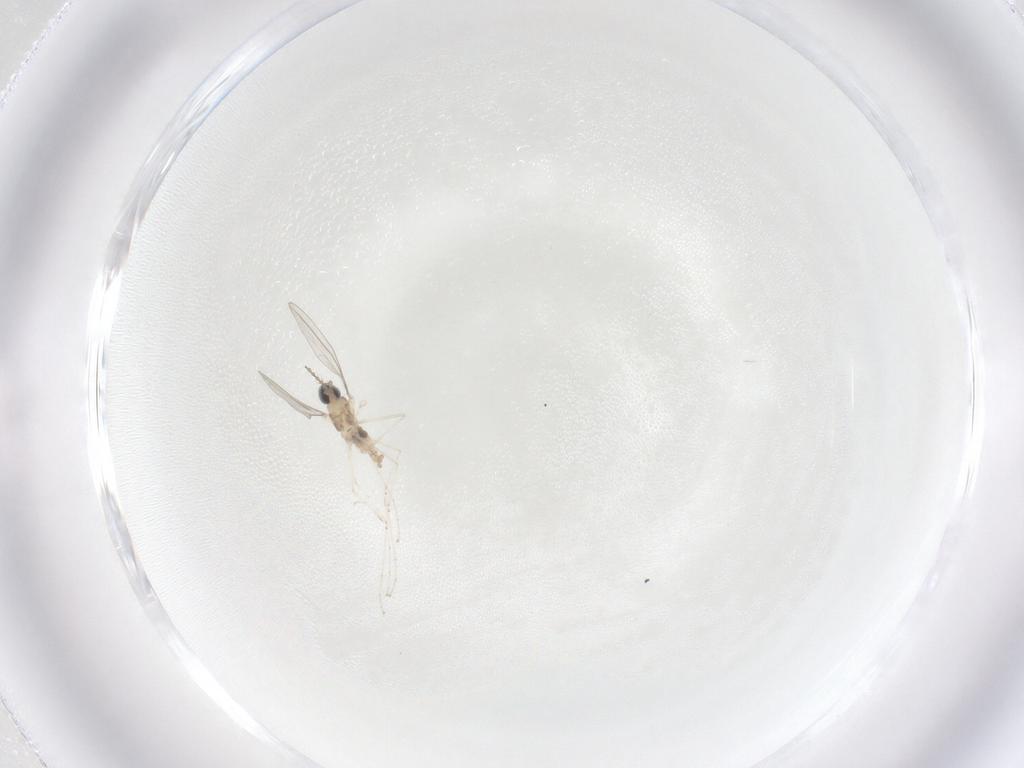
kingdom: Animalia
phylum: Arthropoda
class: Insecta
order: Diptera
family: Cecidomyiidae
